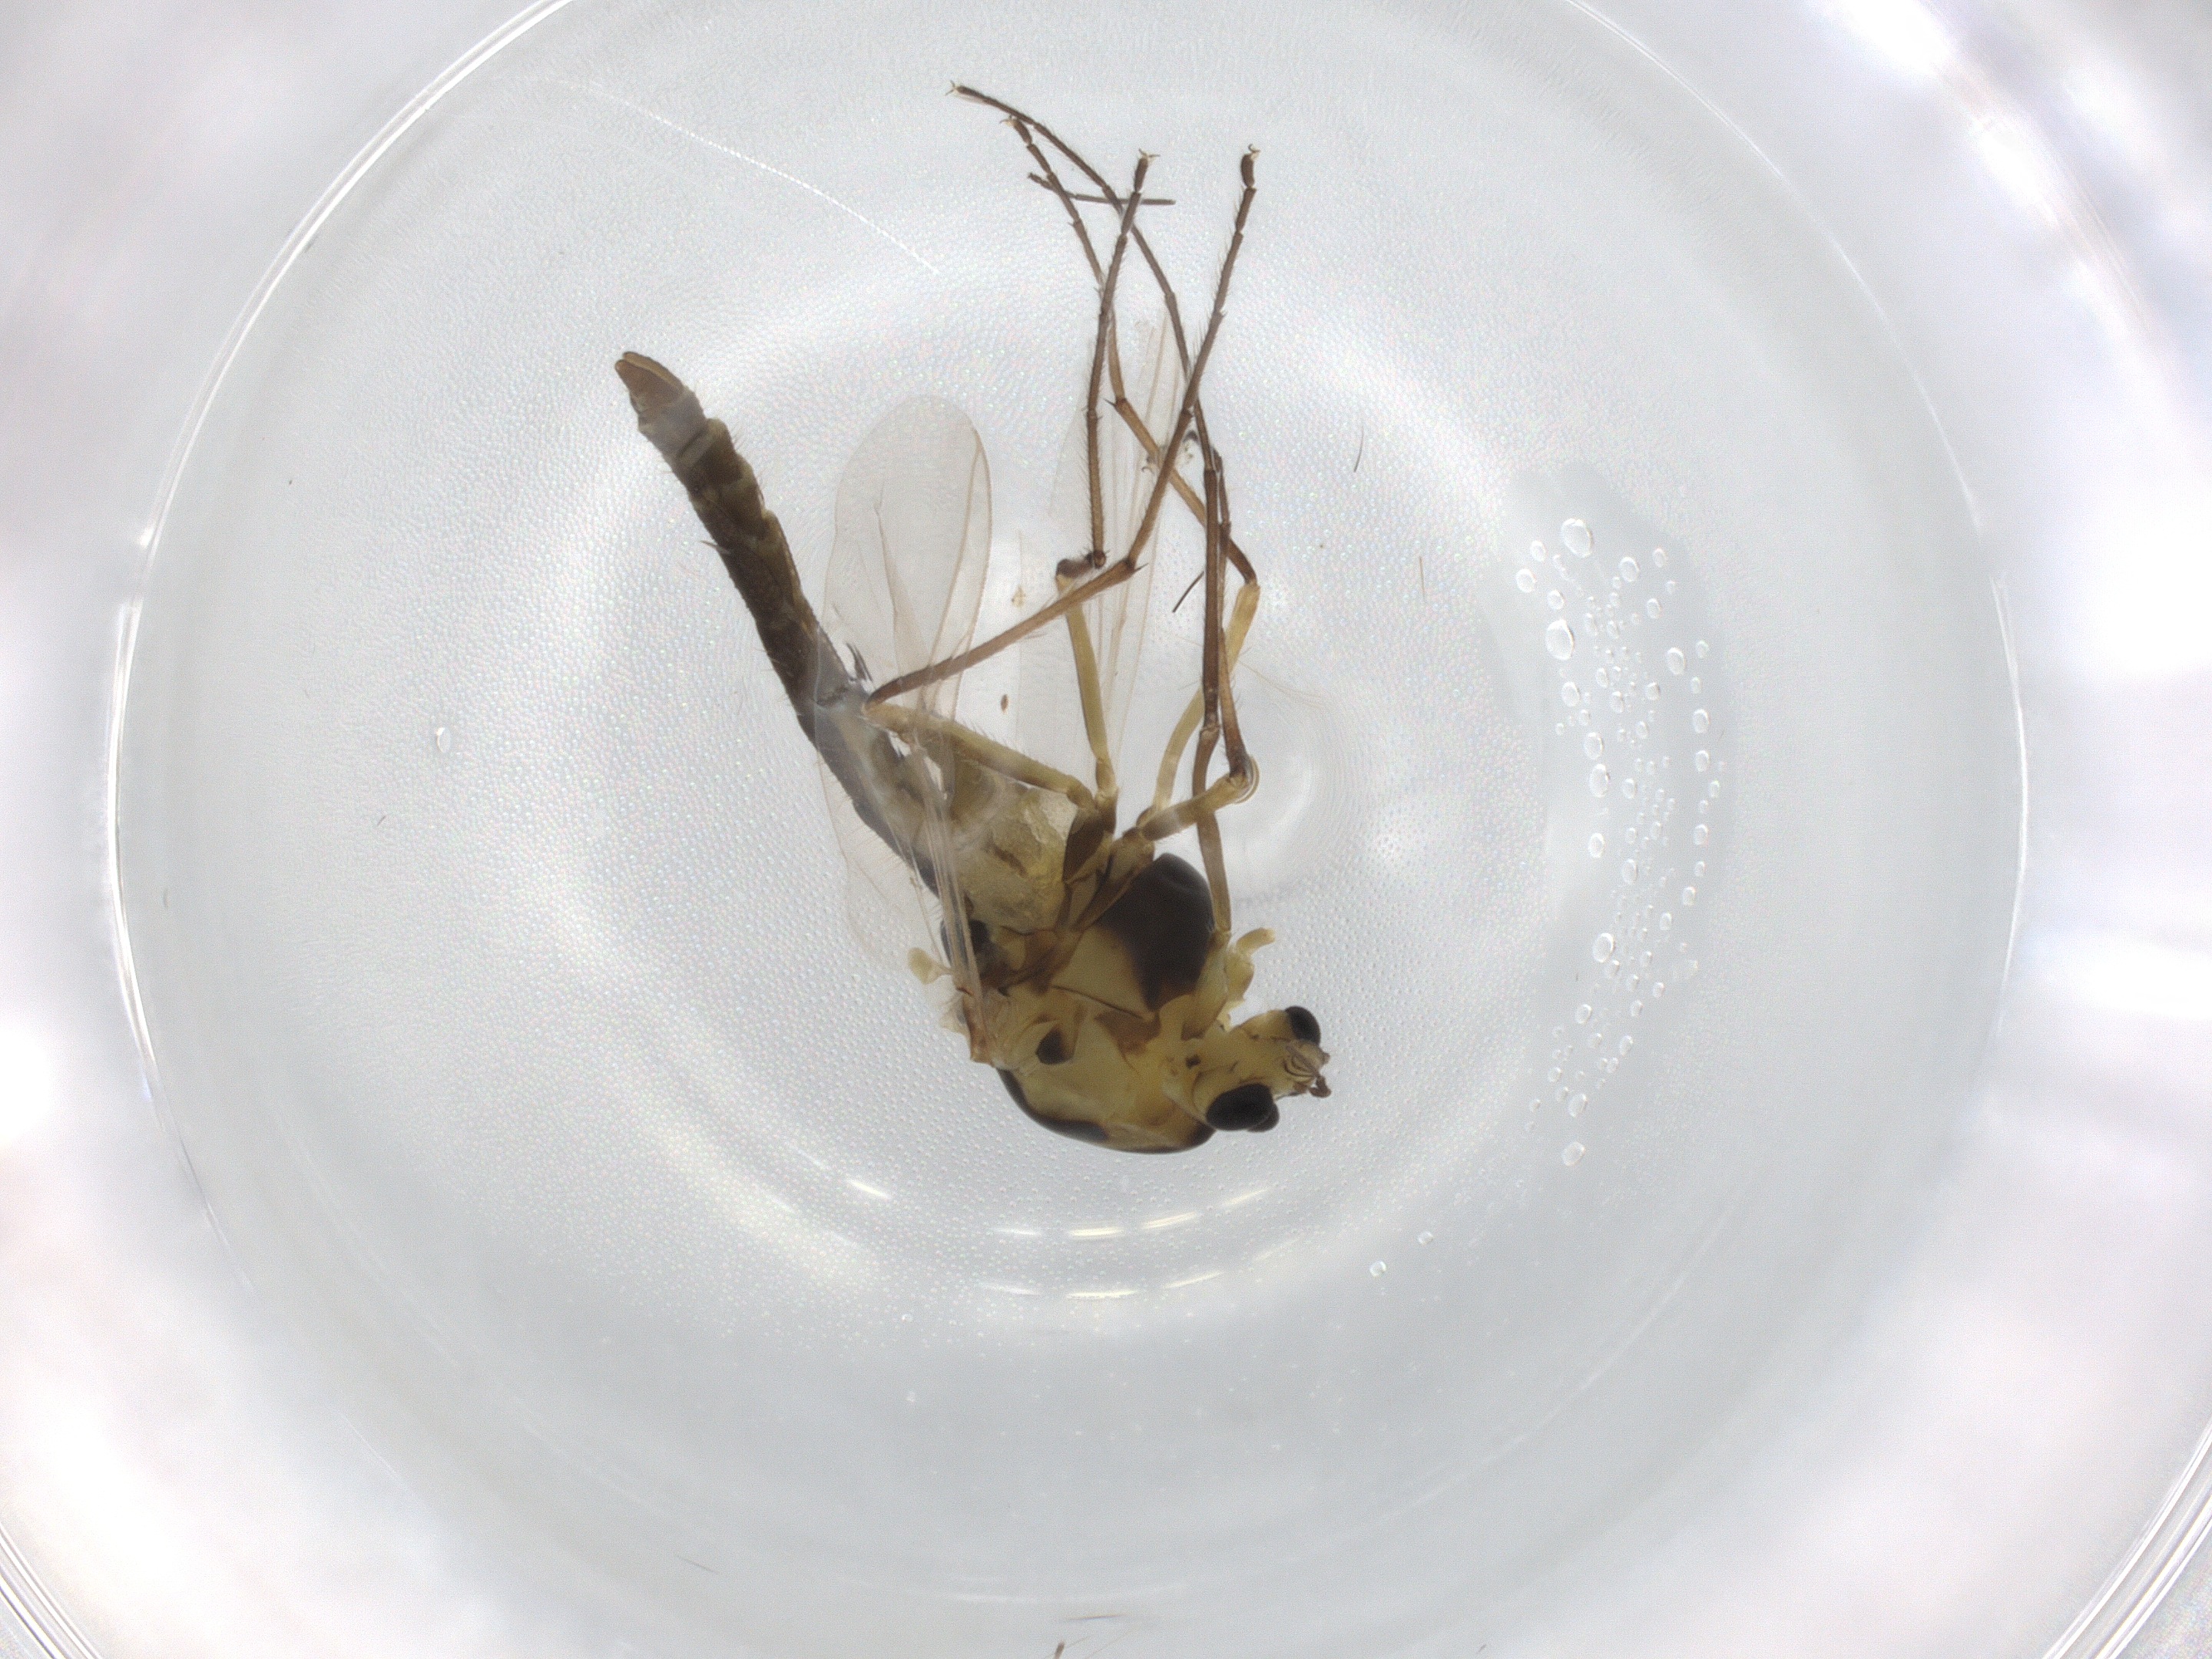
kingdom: Animalia
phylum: Arthropoda
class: Insecta
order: Diptera
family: Ceratopogonidae
